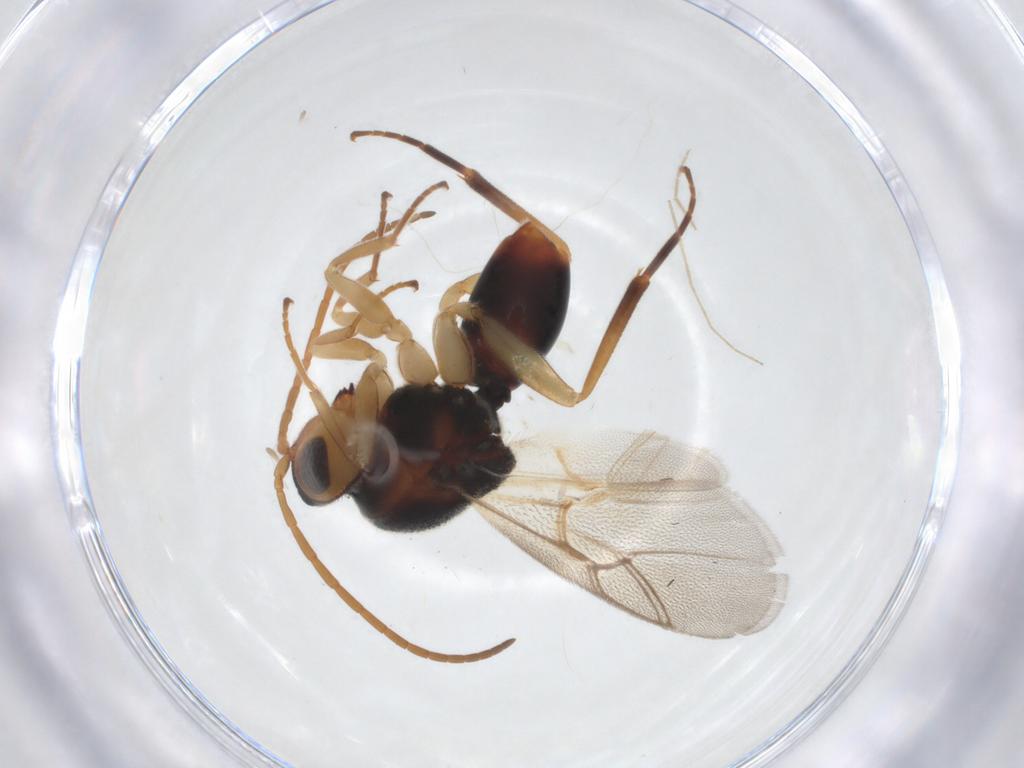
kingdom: Animalia
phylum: Arthropoda
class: Insecta
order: Hymenoptera
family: Cynipidae
